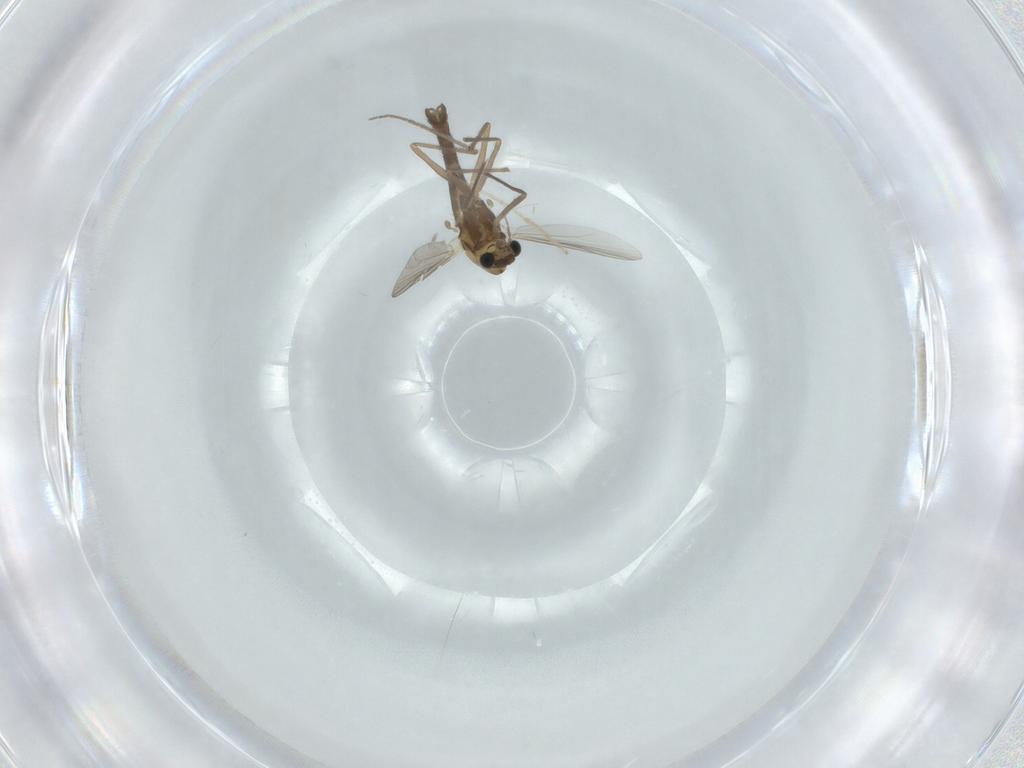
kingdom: Animalia
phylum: Arthropoda
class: Insecta
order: Diptera
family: Chironomidae
